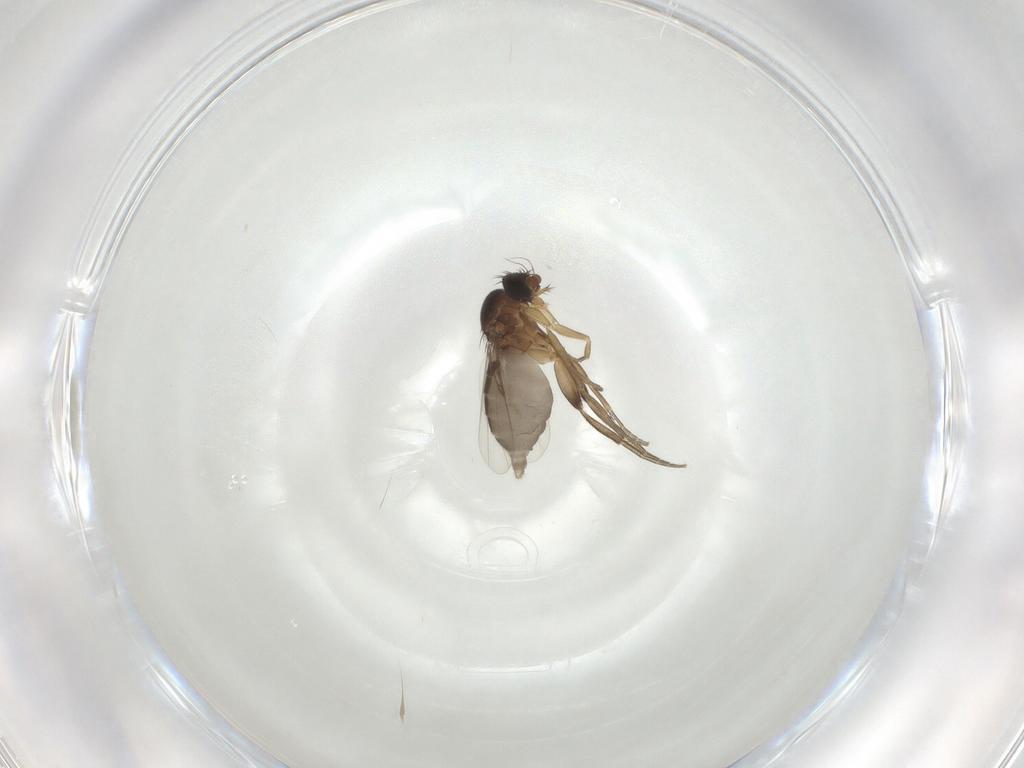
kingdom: Animalia
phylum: Arthropoda
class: Insecta
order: Diptera
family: Phoridae
